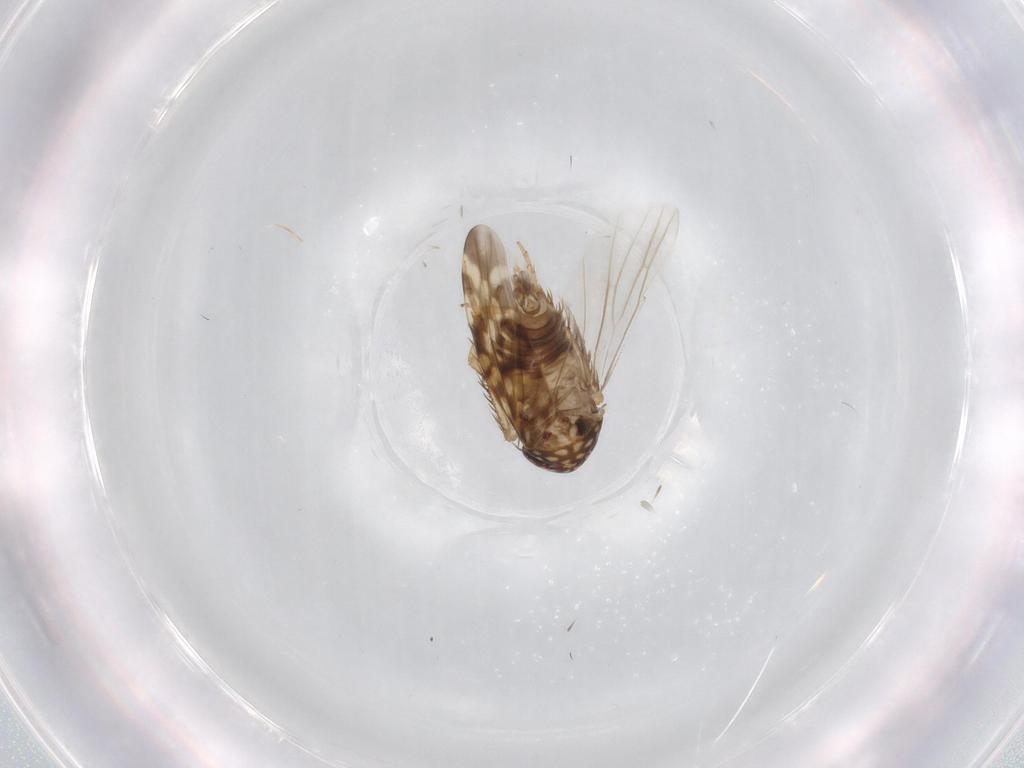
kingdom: Animalia
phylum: Arthropoda
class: Insecta
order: Hemiptera
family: Cicadellidae
